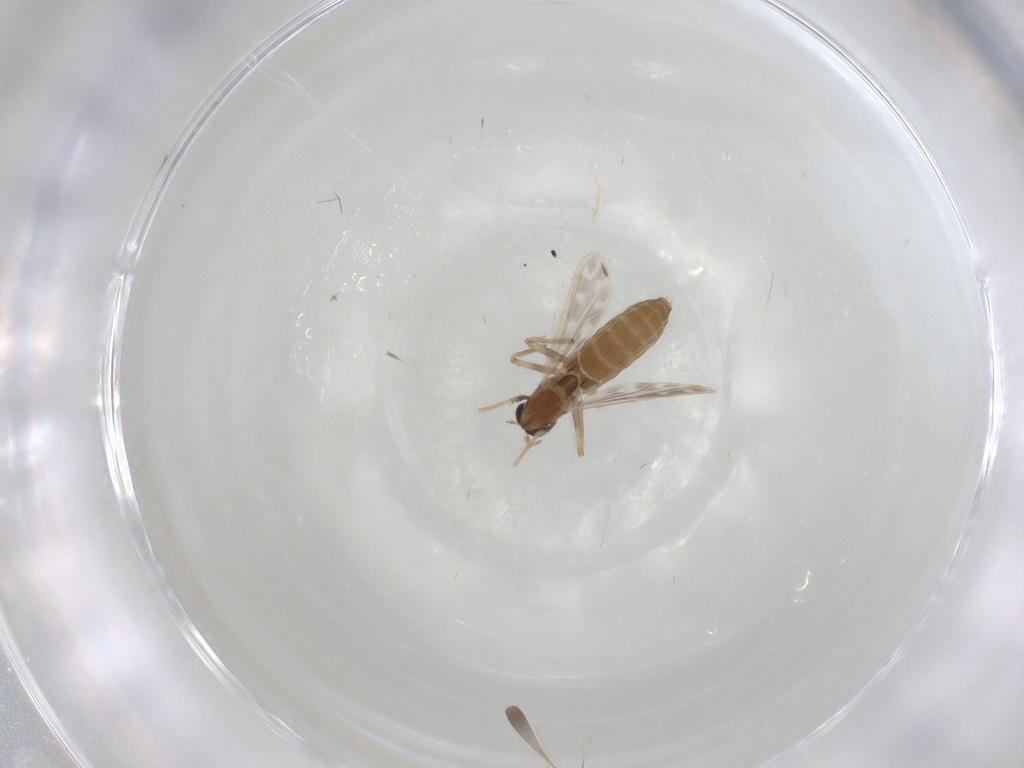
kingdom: Animalia
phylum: Arthropoda
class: Insecta
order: Diptera
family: Chironomidae
